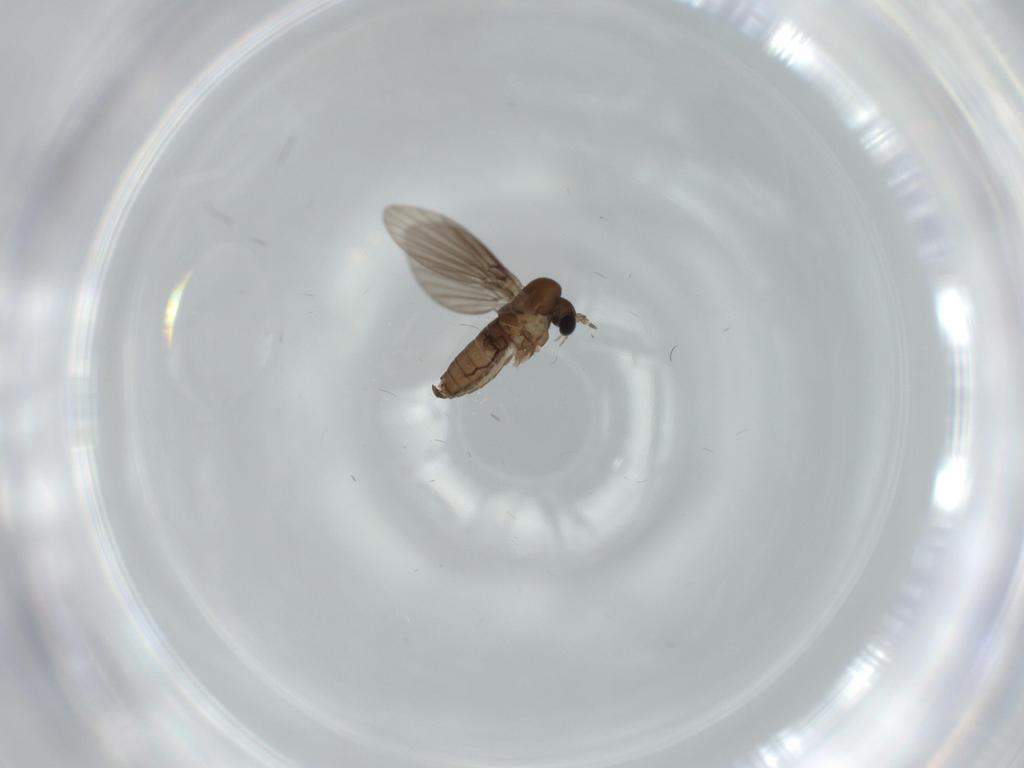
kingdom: Animalia
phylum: Arthropoda
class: Insecta
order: Diptera
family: Psychodidae
